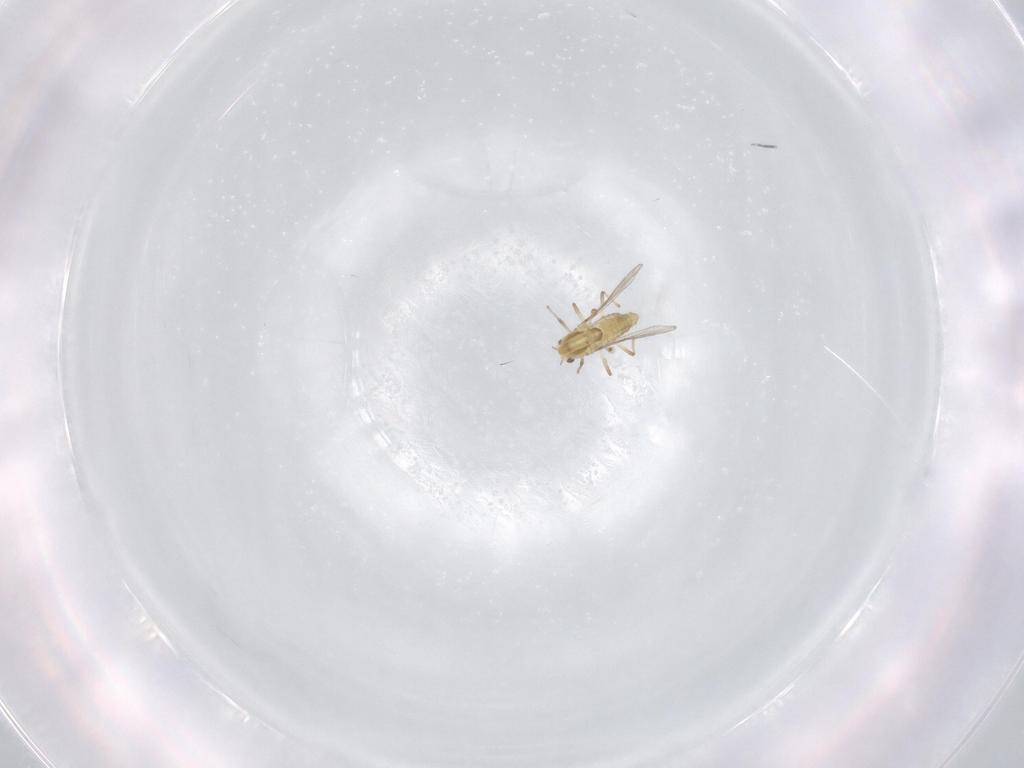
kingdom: Animalia
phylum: Arthropoda
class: Insecta
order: Diptera
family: Chironomidae
